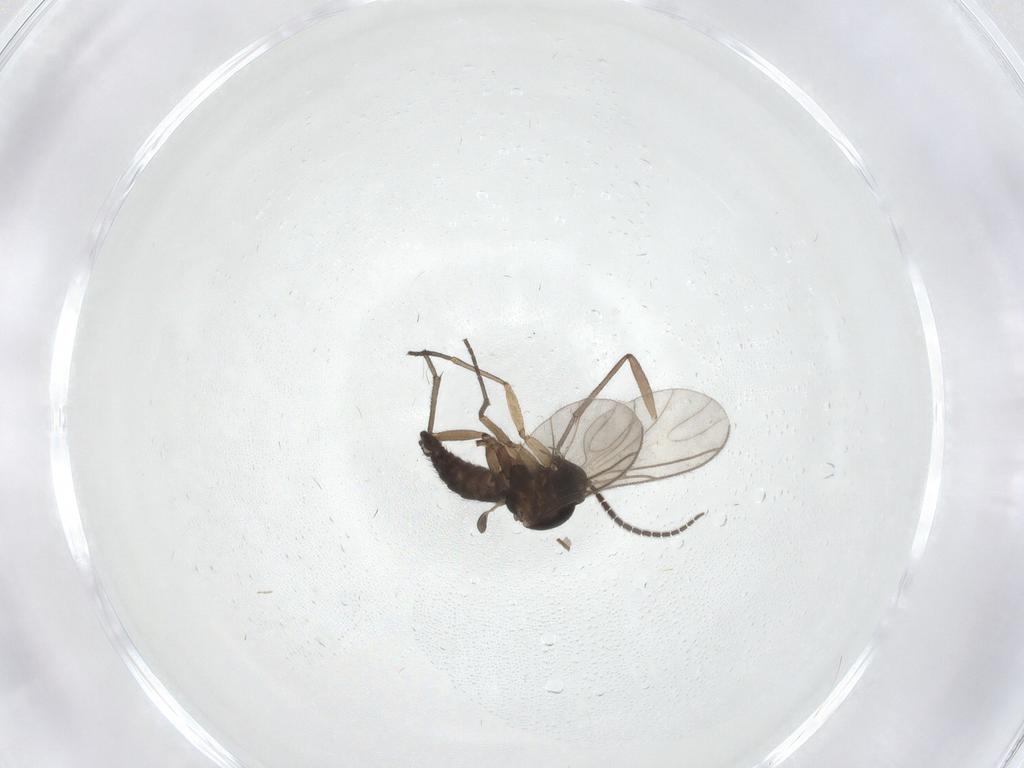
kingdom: Animalia
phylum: Arthropoda
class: Insecta
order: Diptera
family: Sciaridae
